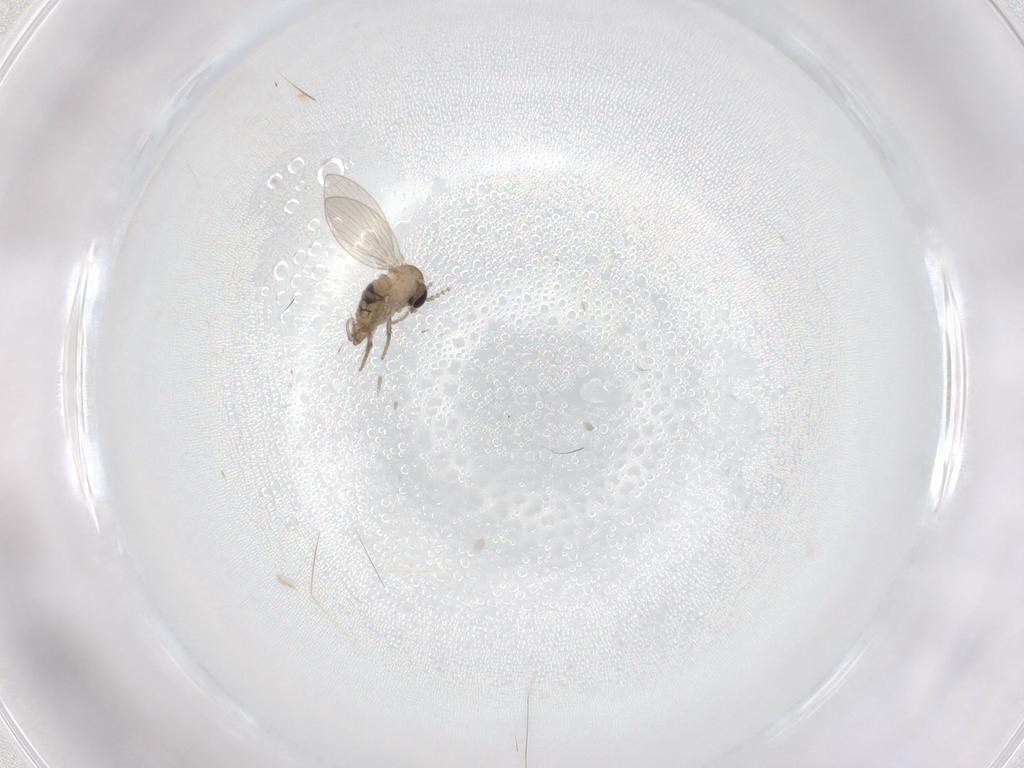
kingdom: Animalia
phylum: Arthropoda
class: Insecta
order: Diptera
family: Psychodidae
